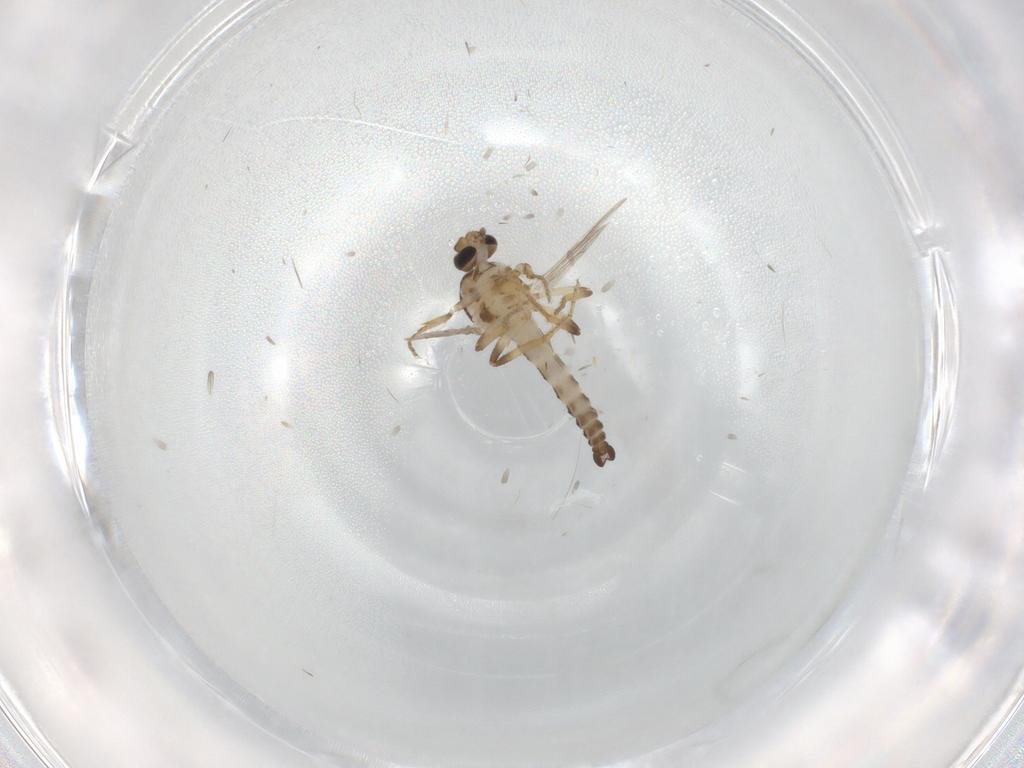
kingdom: Animalia
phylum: Arthropoda
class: Insecta
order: Diptera
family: Ceratopogonidae
